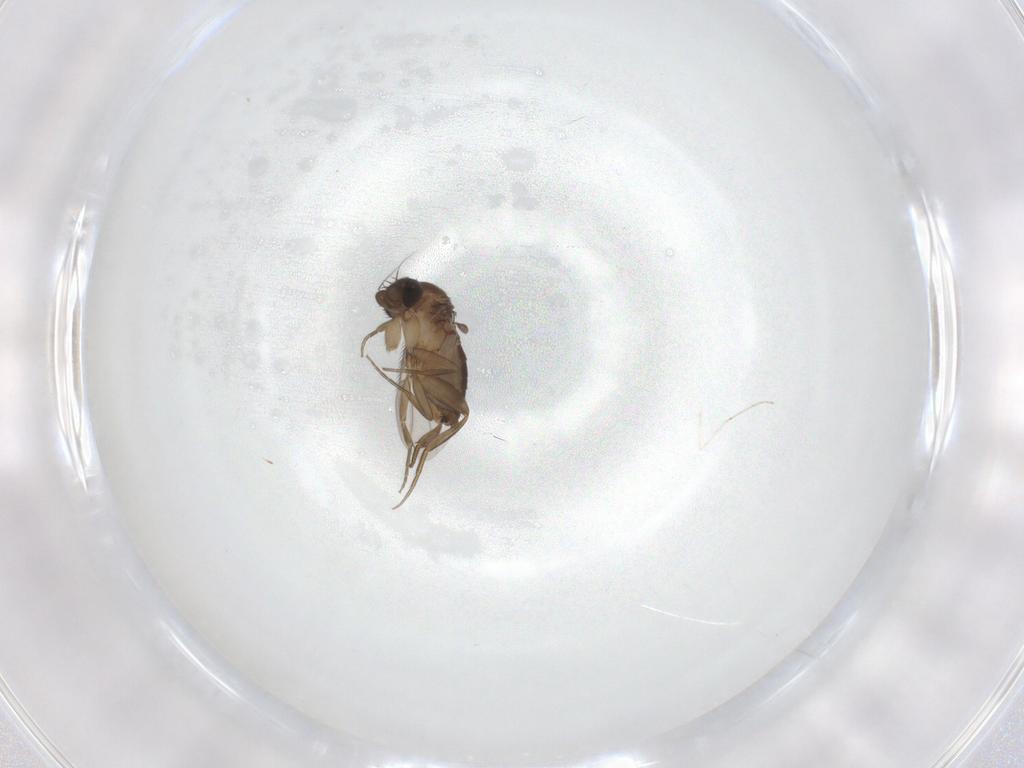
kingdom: Animalia
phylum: Arthropoda
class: Insecta
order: Diptera
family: Phoridae
